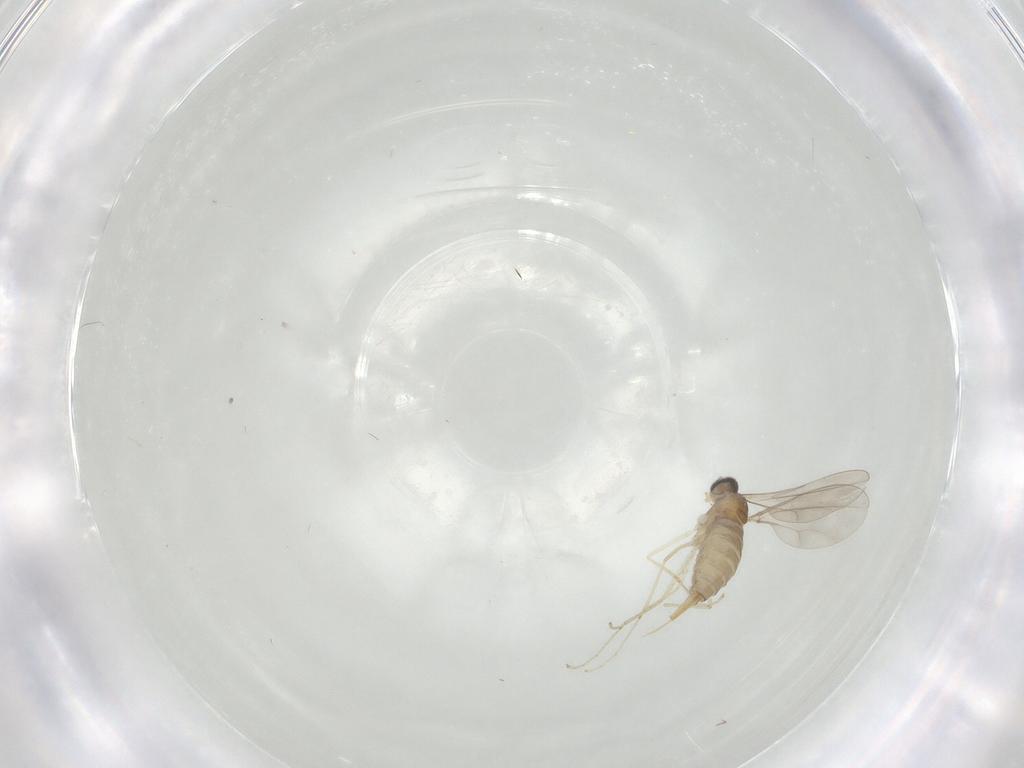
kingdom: Animalia
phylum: Arthropoda
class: Insecta
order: Diptera
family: Cecidomyiidae
